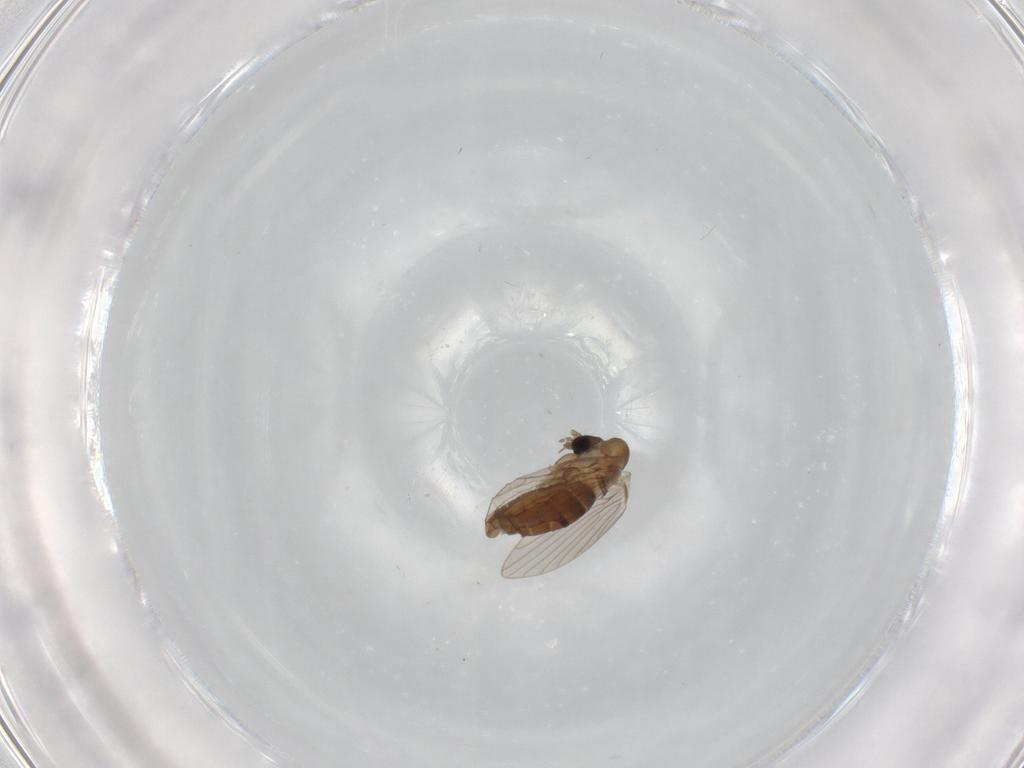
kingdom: Animalia
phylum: Arthropoda
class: Insecta
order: Diptera
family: Psychodidae
